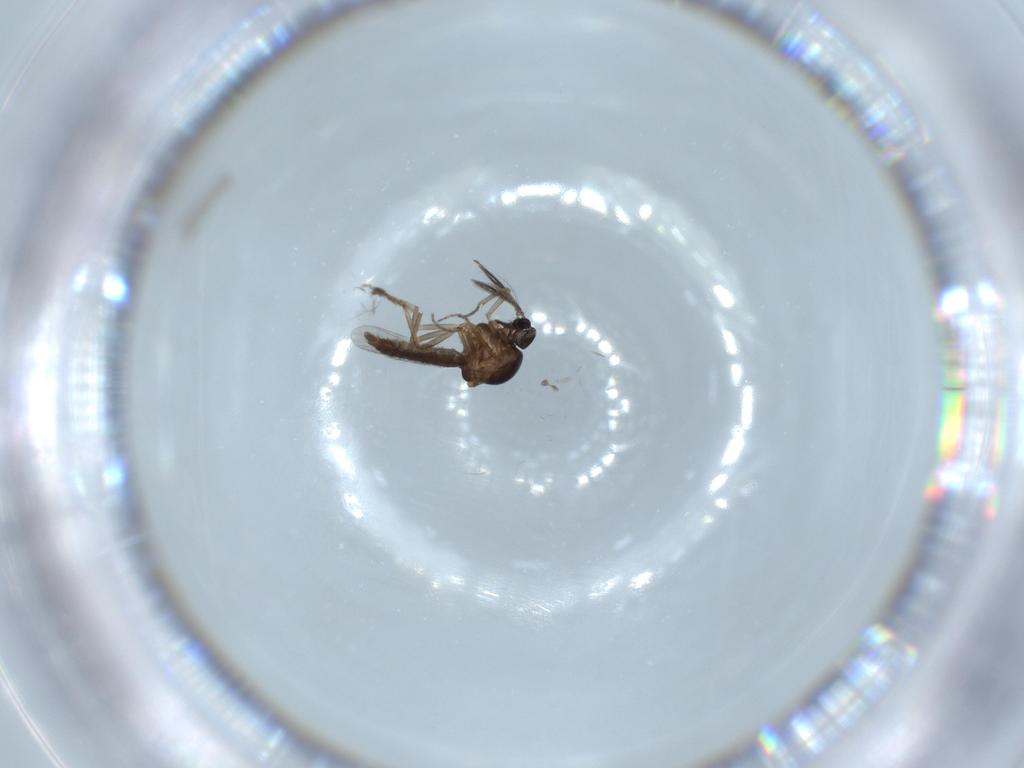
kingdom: Animalia
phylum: Arthropoda
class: Insecta
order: Diptera
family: Ceratopogonidae
